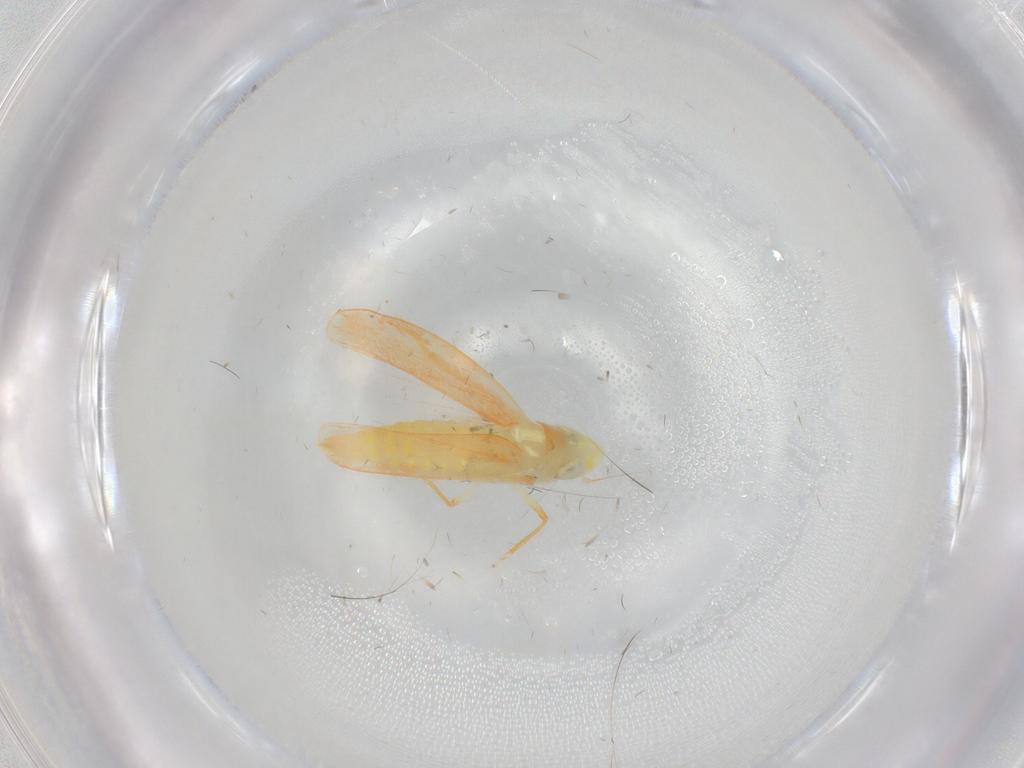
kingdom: Animalia
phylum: Arthropoda
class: Insecta
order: Hemiptera
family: Cicadellidae
